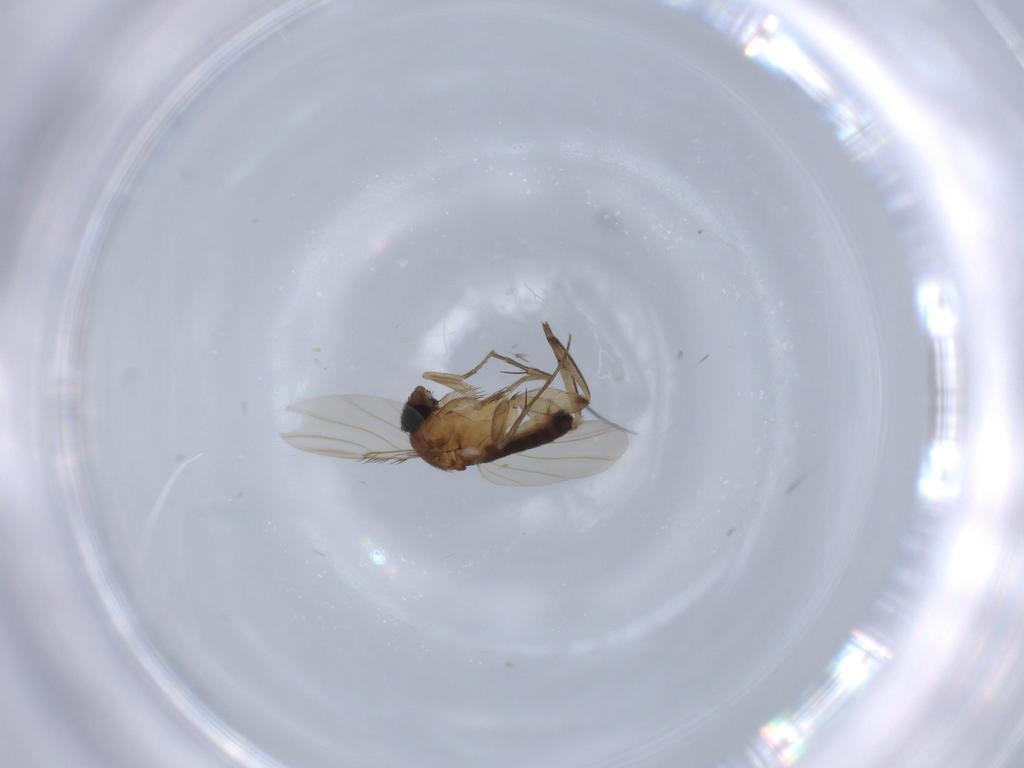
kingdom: Animalia
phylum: Arthropoda
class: Insecta
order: Diptera
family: Phoridae
